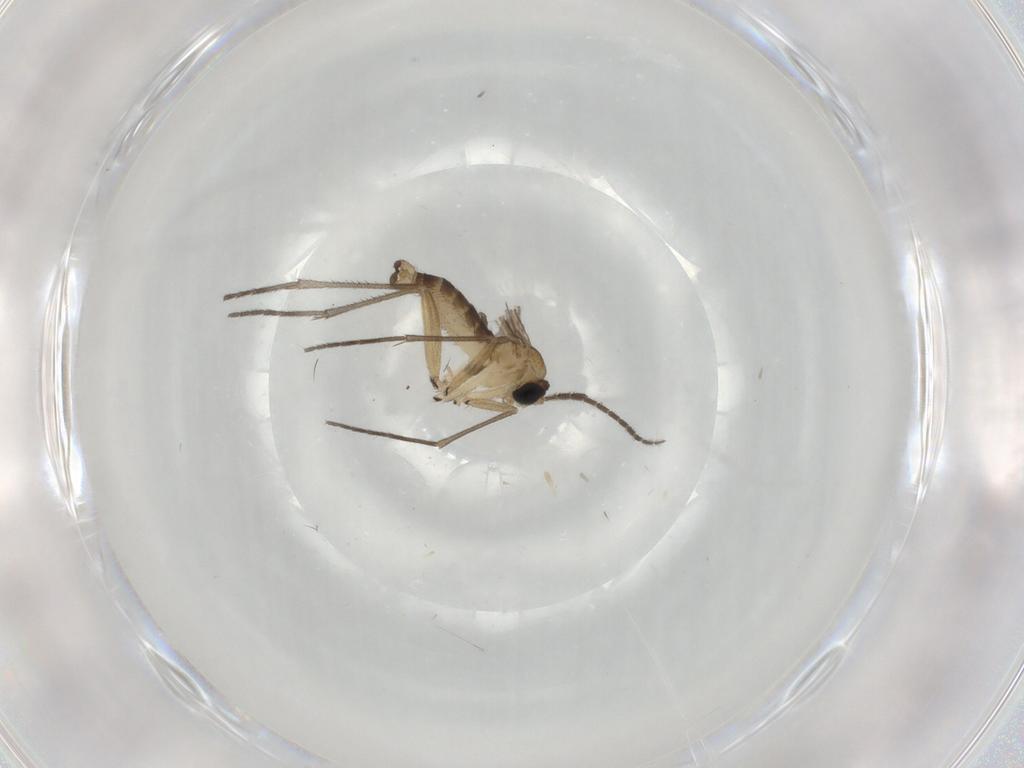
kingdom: Animalia
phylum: Arthropoda
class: Insecta
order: Diptera
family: Sciaridae
